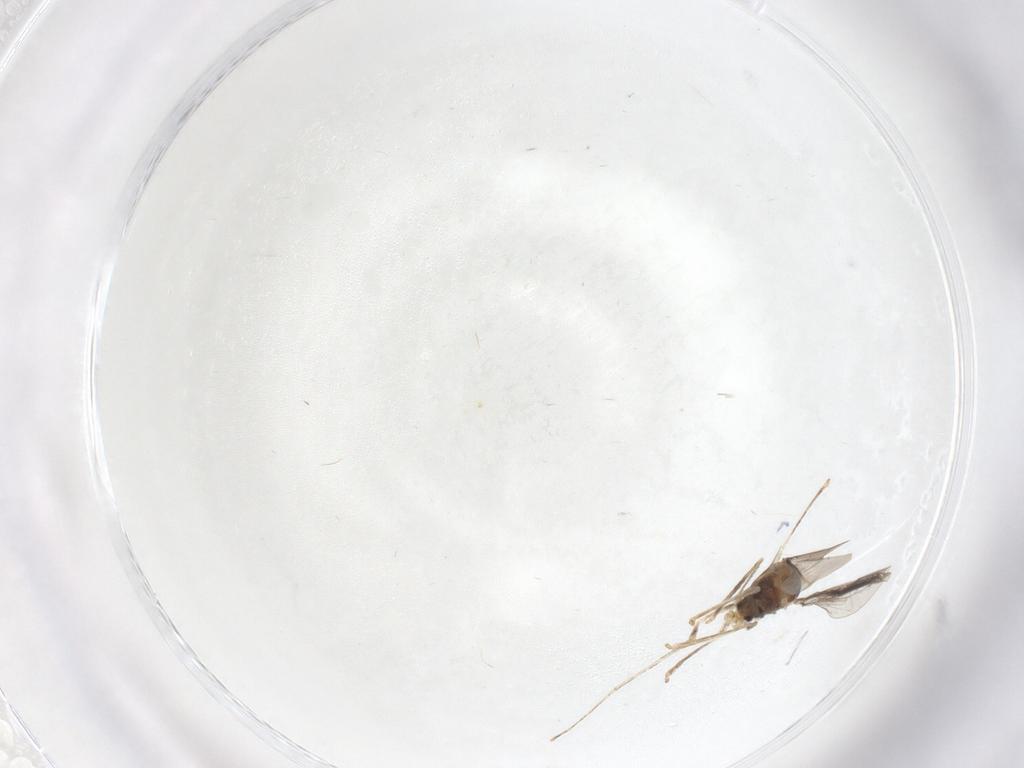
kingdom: Animalia
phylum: Arthropoda
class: Insecta
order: Diptera
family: Cecidomyiidae
